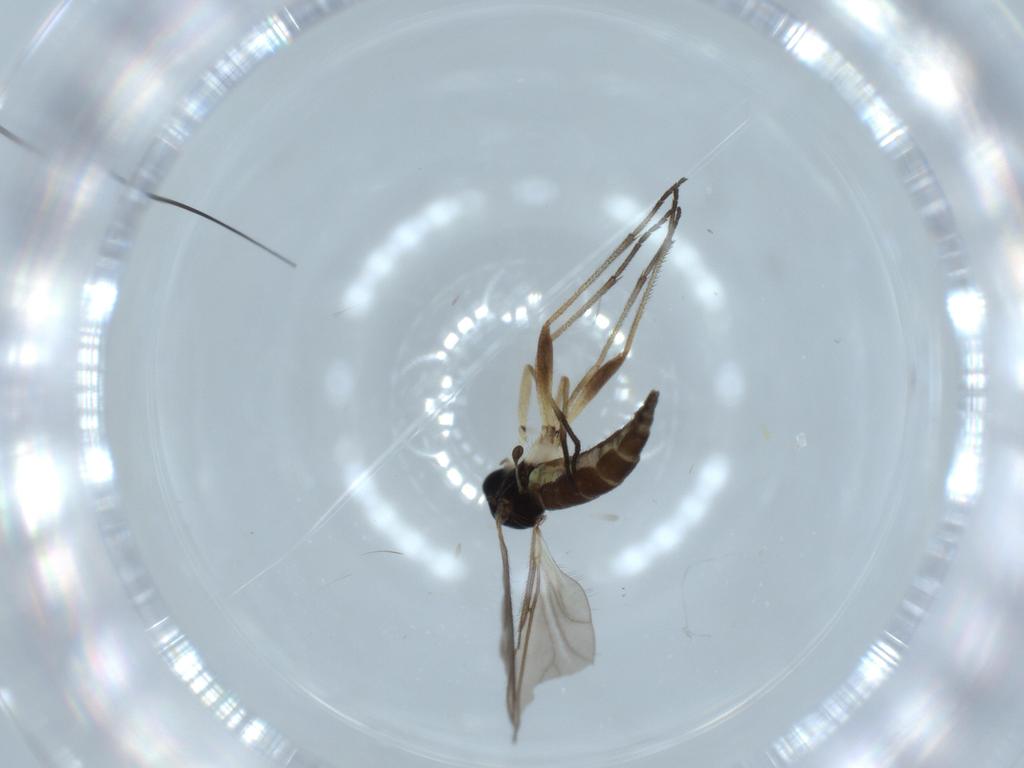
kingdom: Animalia
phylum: Arthropoda
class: Insecta
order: Diptera
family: Sciaridae
